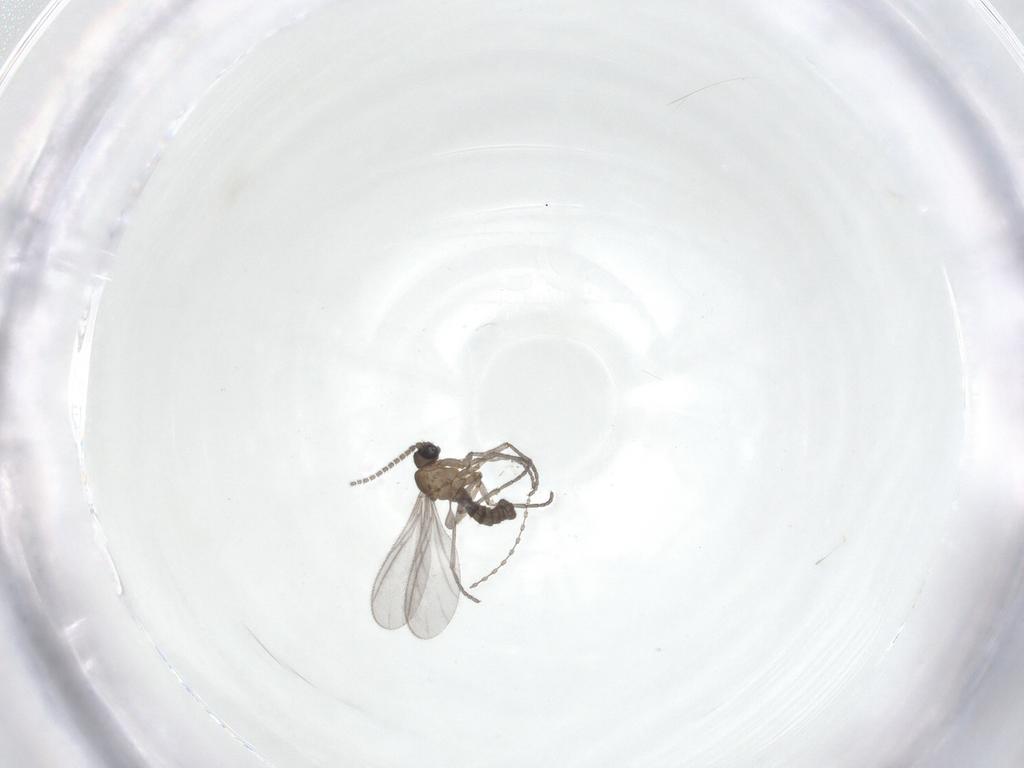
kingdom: Animalia
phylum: Arthropoda
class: Insecta
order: Diptera
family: Sciaridae
